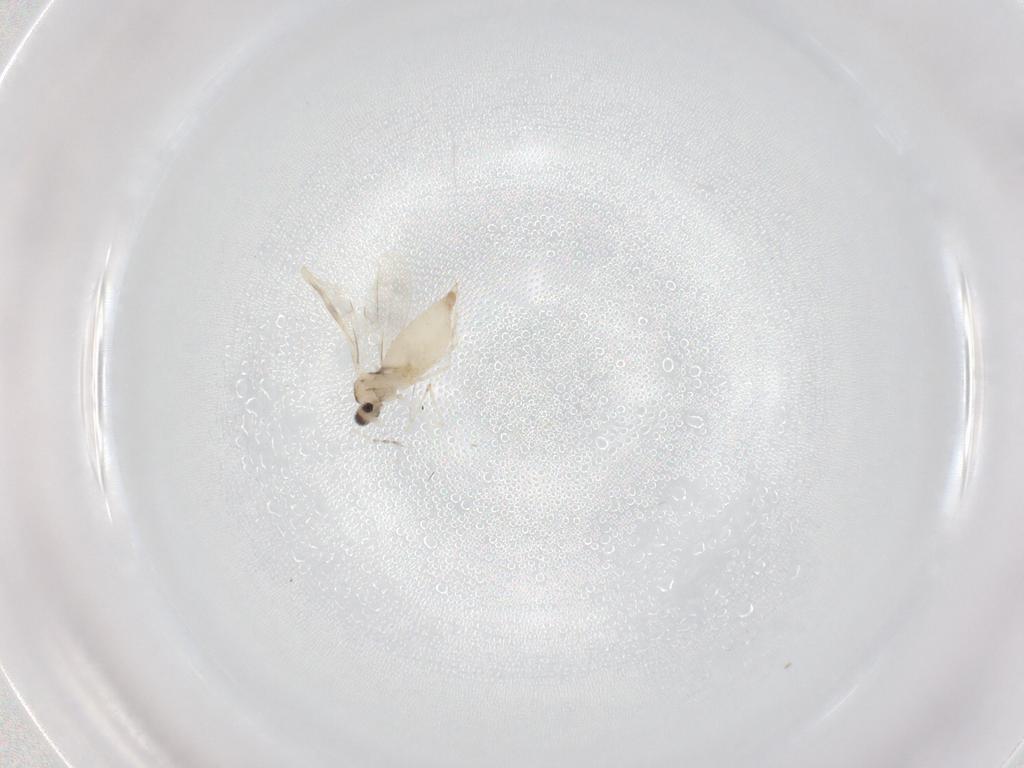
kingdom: Animalia
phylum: Arthropoda
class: Insecta
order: Diptera
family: Cecidomyiidae
